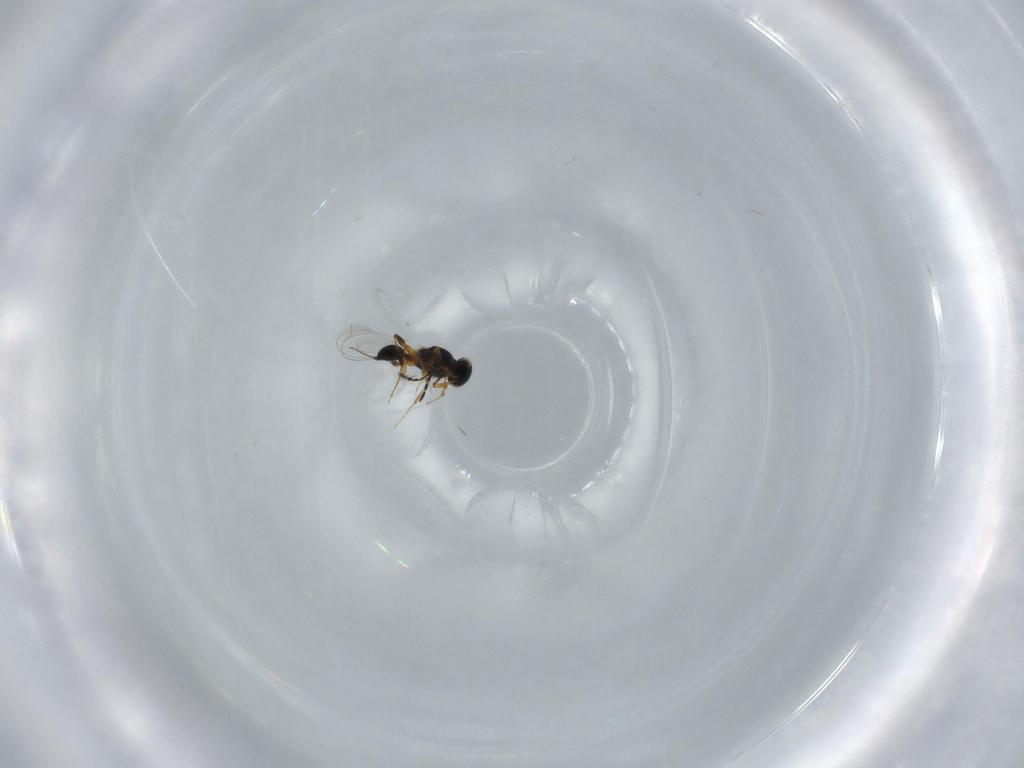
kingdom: Animalia
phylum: Arthropoda
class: Insecta
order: Hymenoptera
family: Platygastridae
